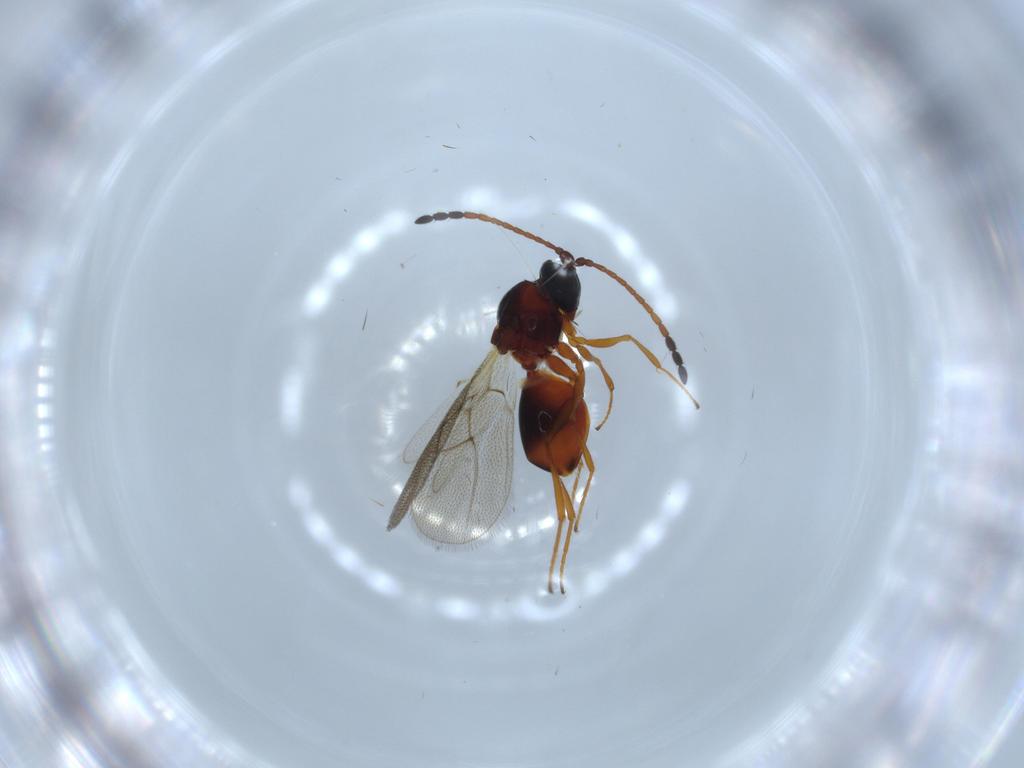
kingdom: Animalia
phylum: Arthropoda
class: Insecta
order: Hymenoptera
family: Figitidae
